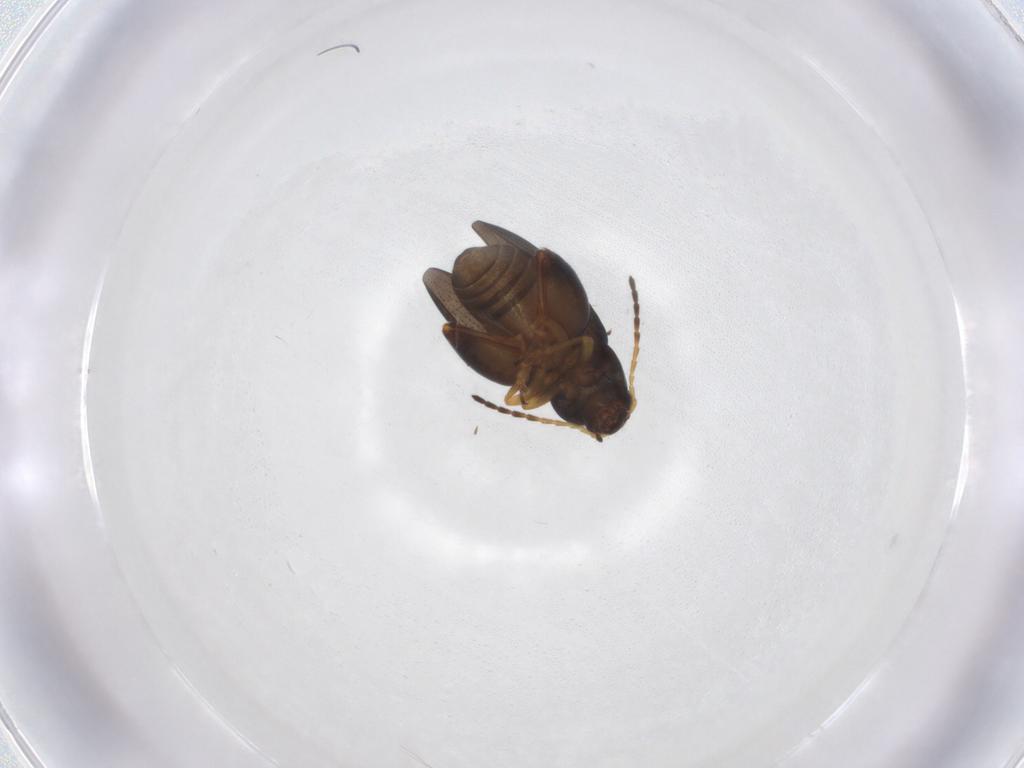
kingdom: Animalia
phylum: Arthropoda
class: Insecta
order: Coleoptera
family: Chrysomelidae
